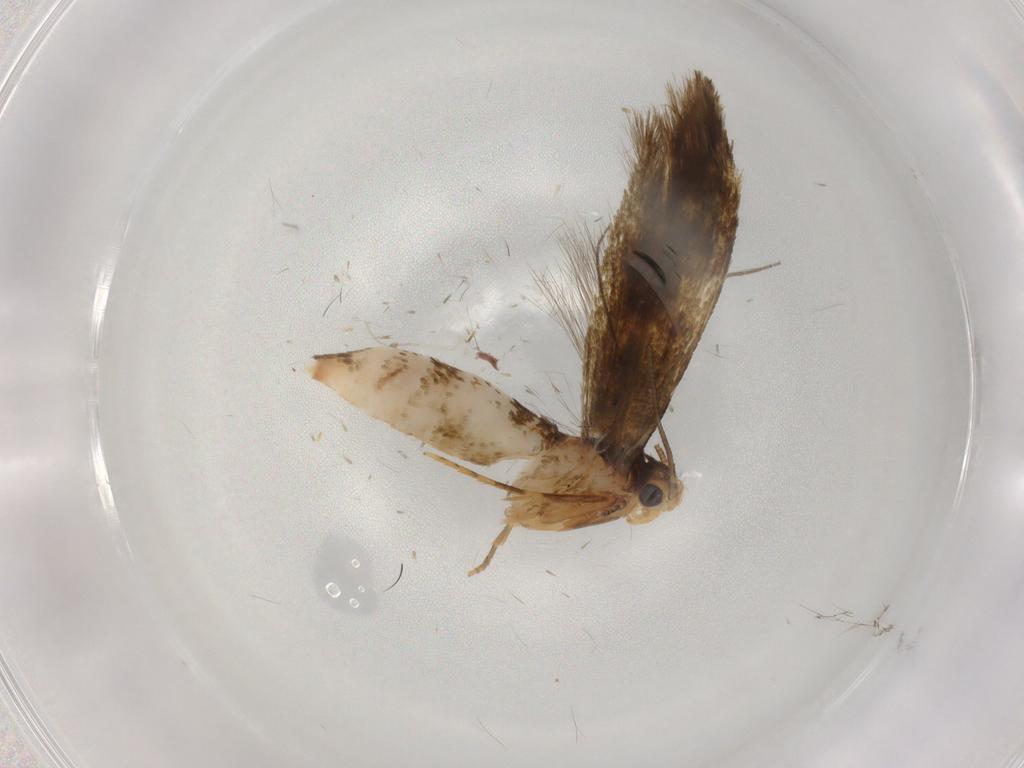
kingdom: Animalia
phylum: Arthropoda
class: Insecta
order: Lepidoptera
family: Tineidae
